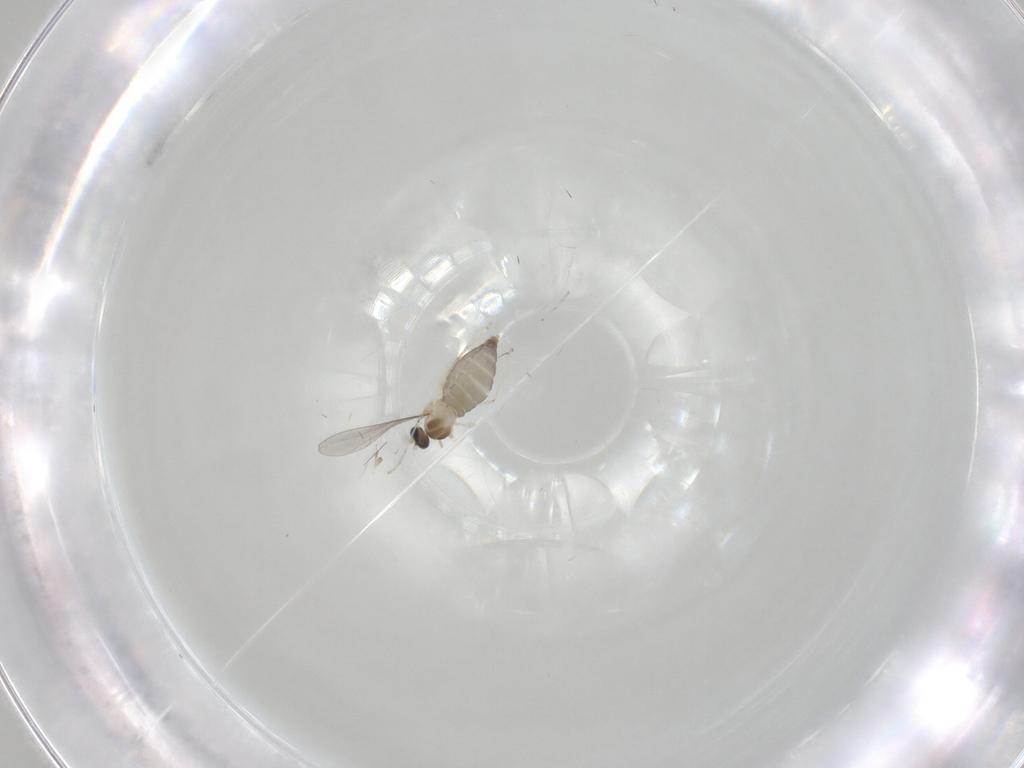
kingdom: Animalia
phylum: Arthropoda
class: Insecta
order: Diptera
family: Cecidomyiidae
